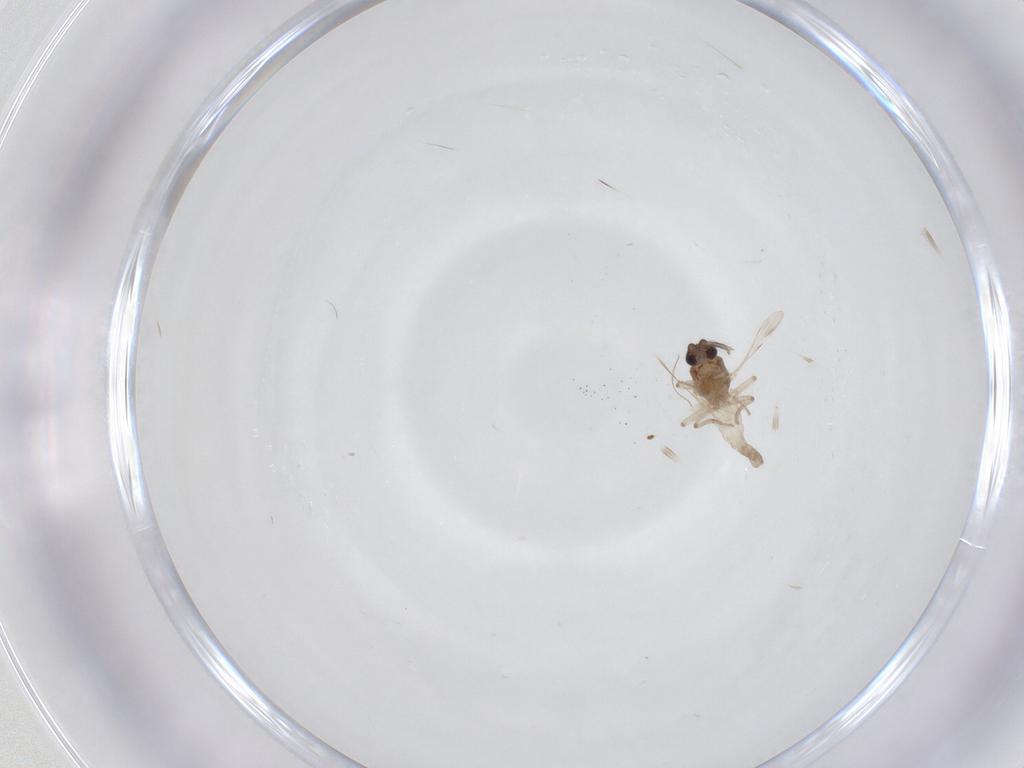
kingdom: Animalia
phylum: Arthropoda
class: Insecta
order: Diptera
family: Ceratopogonidae
